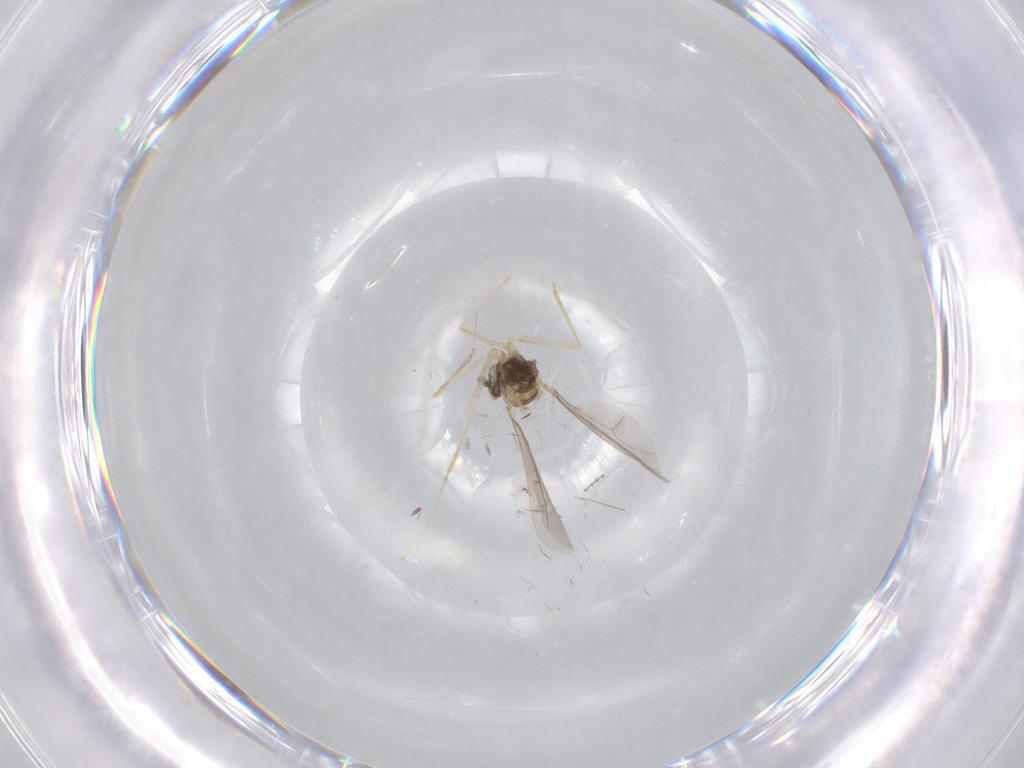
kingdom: Animalia
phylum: Arthropoda
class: Insecta
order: Diptera
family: Cecidomyiidae
